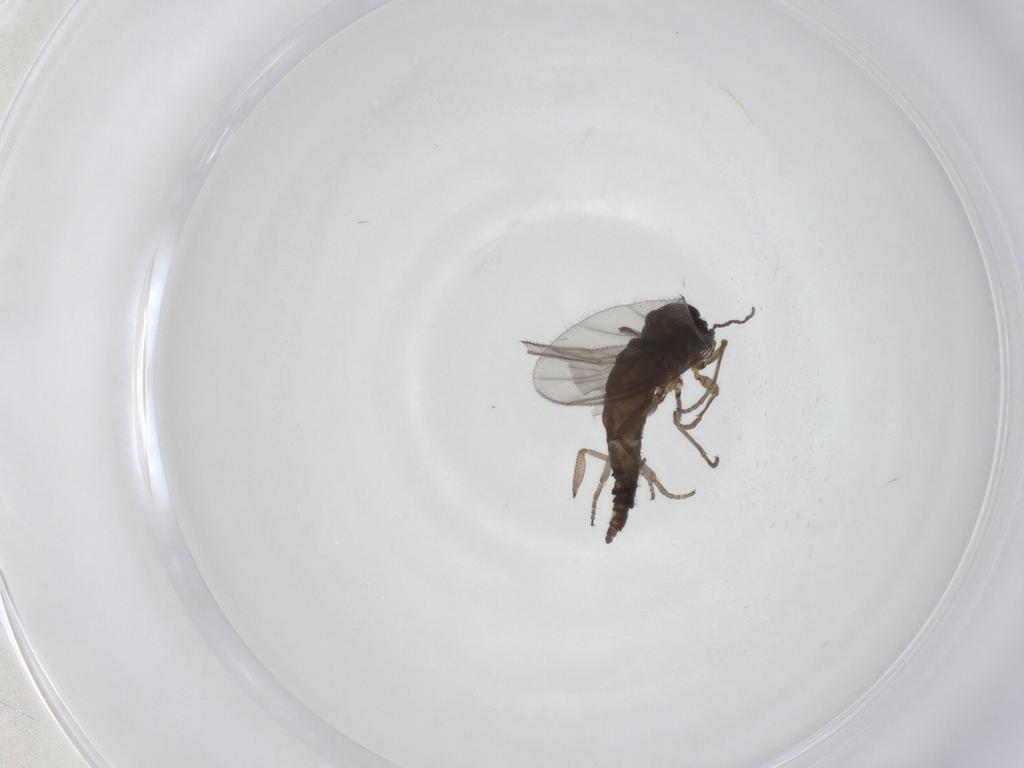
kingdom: Animalia
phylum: Arthropoda
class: Insecta
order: Diptera
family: Sciaridae
